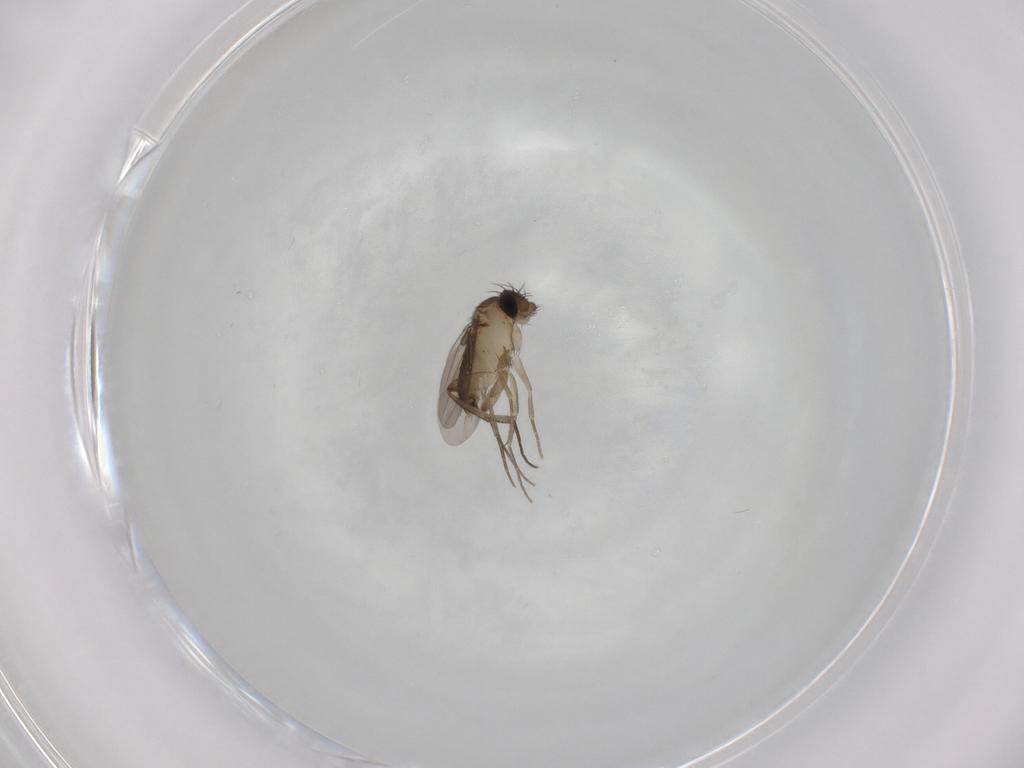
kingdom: Animalia
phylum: Arthropoda
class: Insecta
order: Diptera
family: Phoridae
